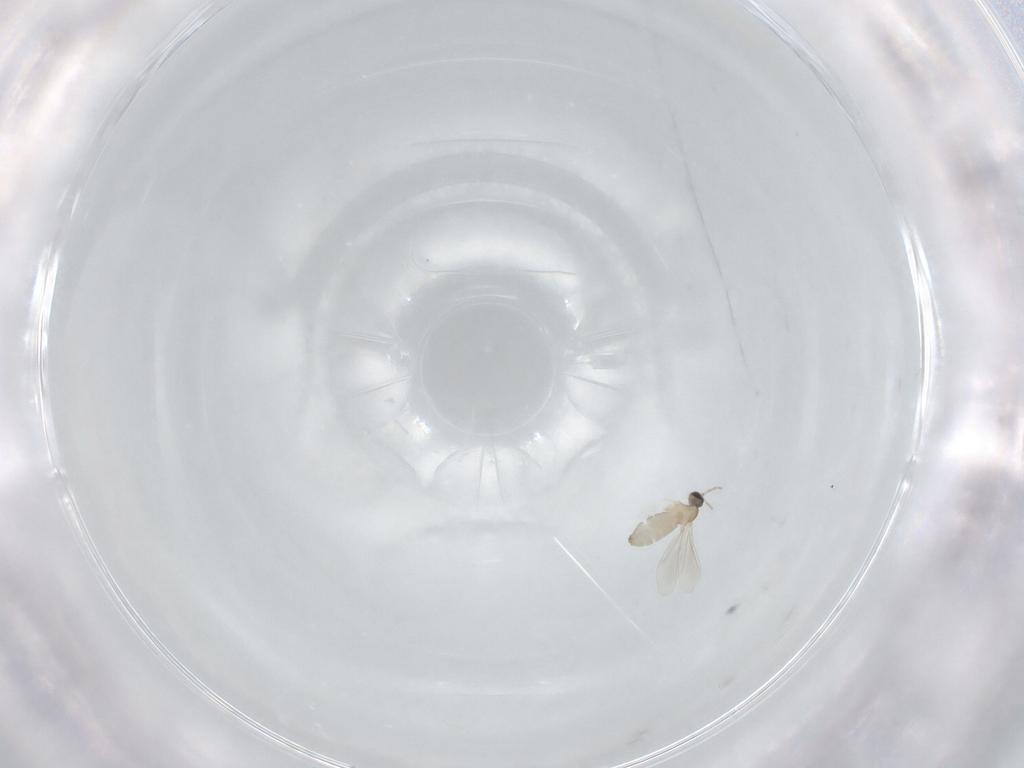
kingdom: Animalia
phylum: Arthropoda
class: Insecta
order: Diptera
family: Cecidomyiidae
